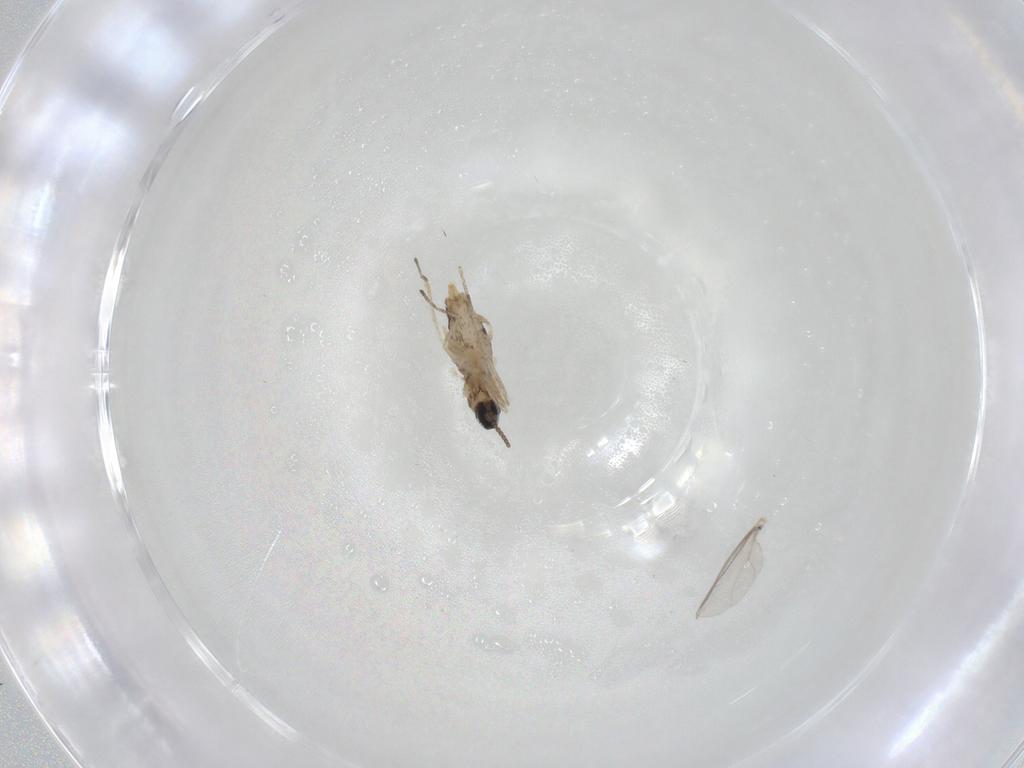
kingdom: Animalia
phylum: Arthropoda
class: Insecta
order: Diptera
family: Cecidomyiidae
